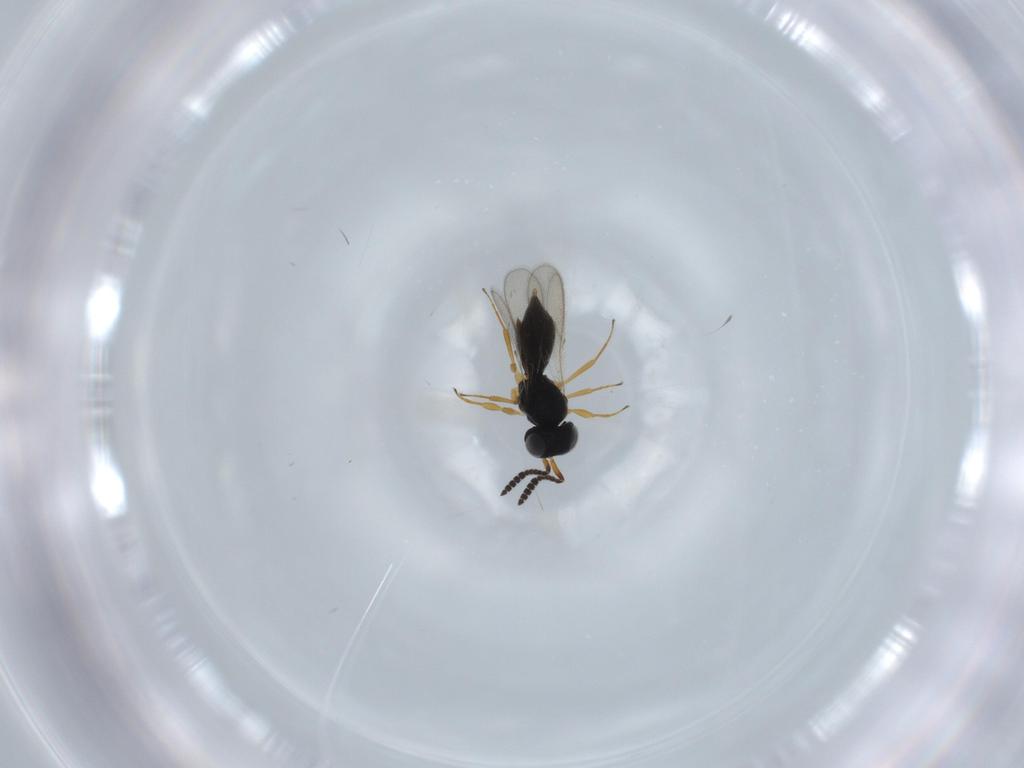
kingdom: Animalia
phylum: Arthropoda
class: Insecta
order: Hymenoptera
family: Scelionidae
